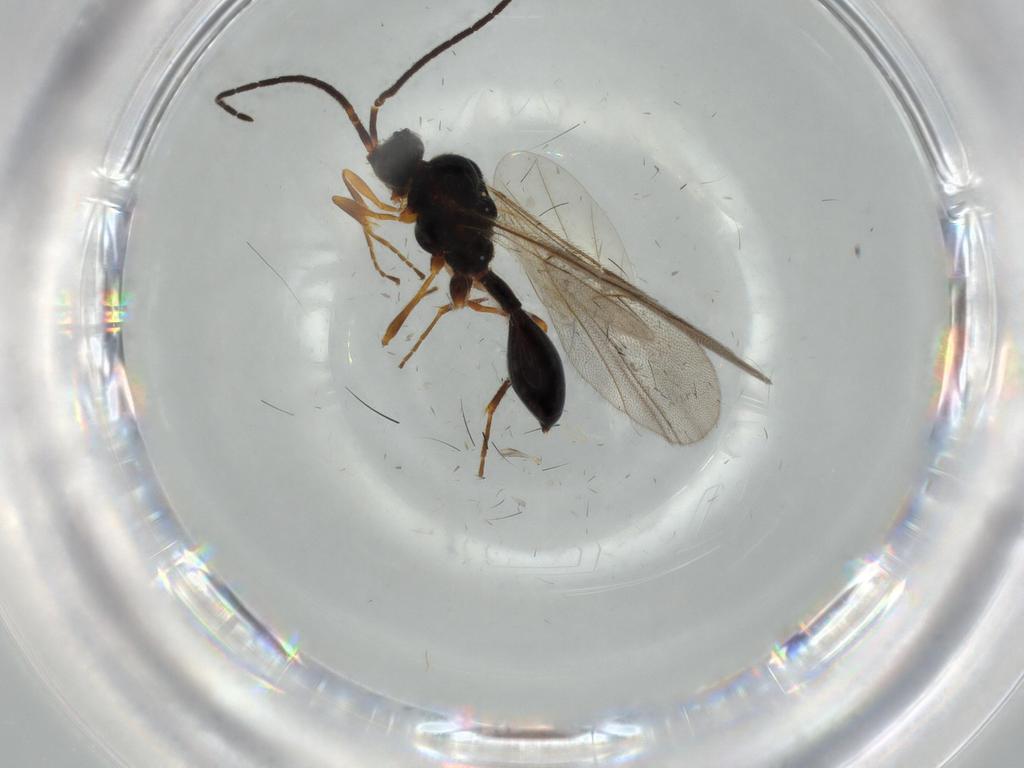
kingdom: Animalia
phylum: Arthropoda
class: Insecta
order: Hymenoptera
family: Diapriidae
